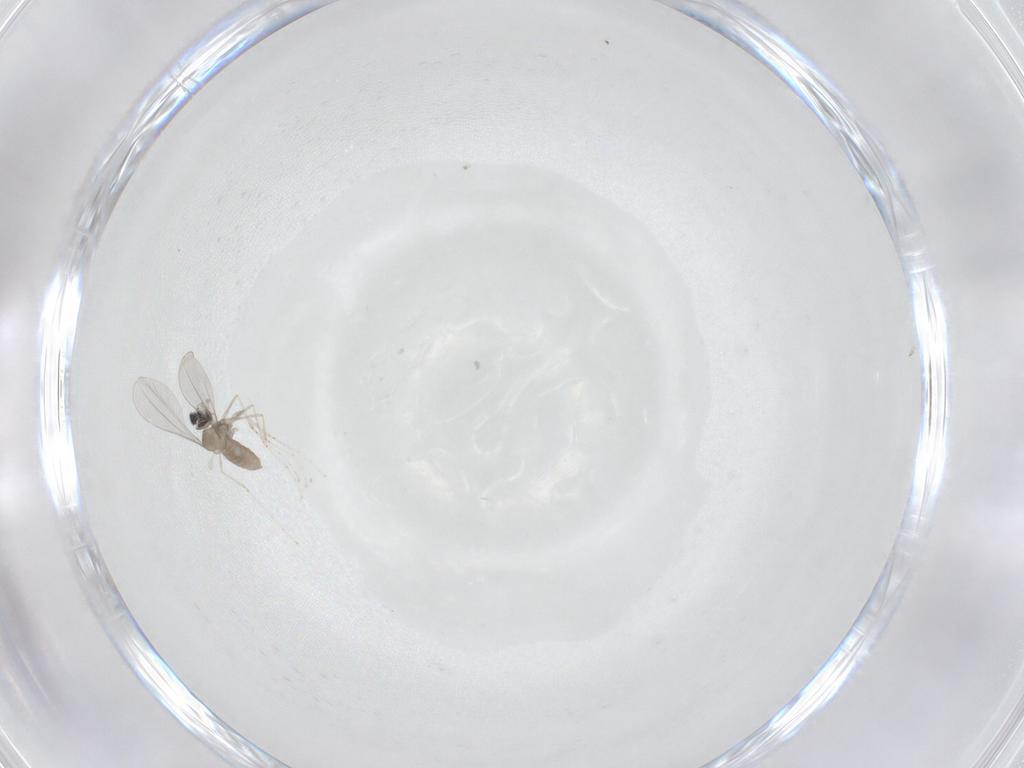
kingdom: Animalia
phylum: Arthropoda
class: Insecta
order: Diptera
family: Cecidomyiidae
